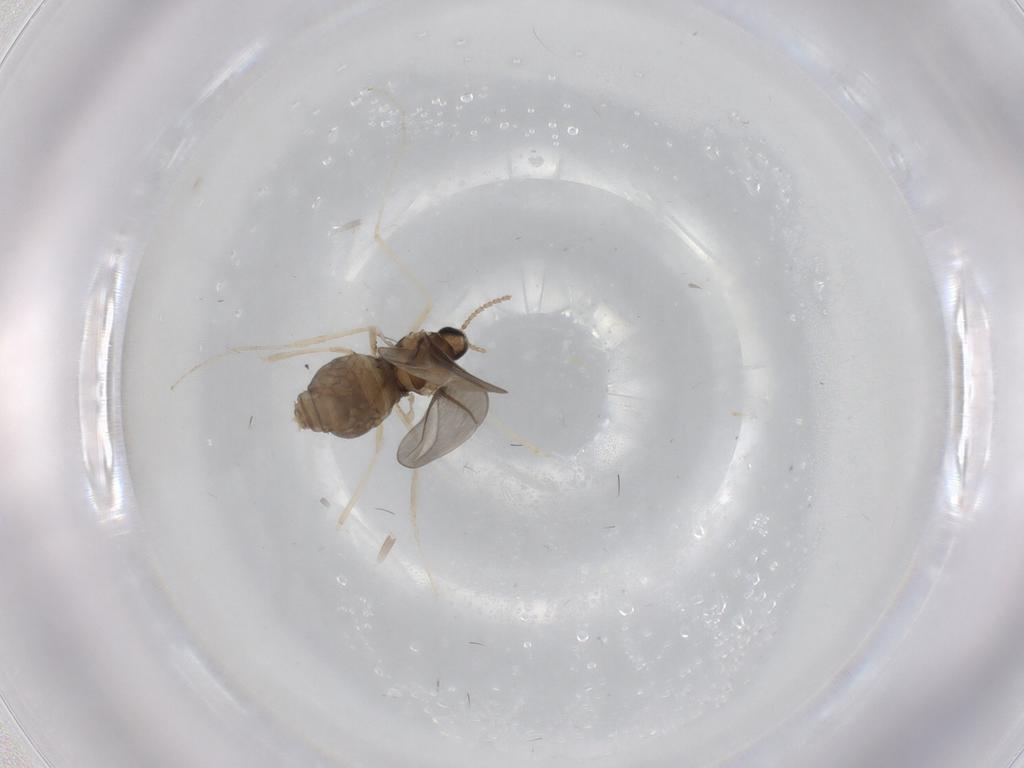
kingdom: Animalia
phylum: Arthropoda
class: Insecta
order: Diptera
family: Cecidomyiidae
